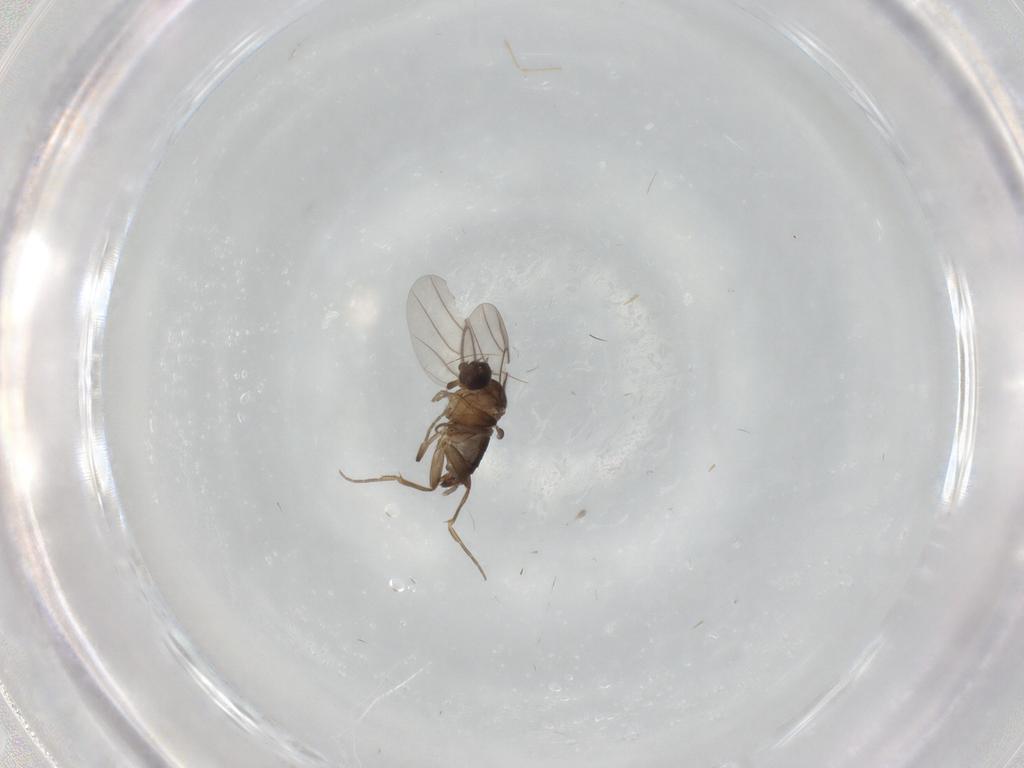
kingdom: Animalia
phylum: Arthropoda
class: Insecta
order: Diptera
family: Phoridae
